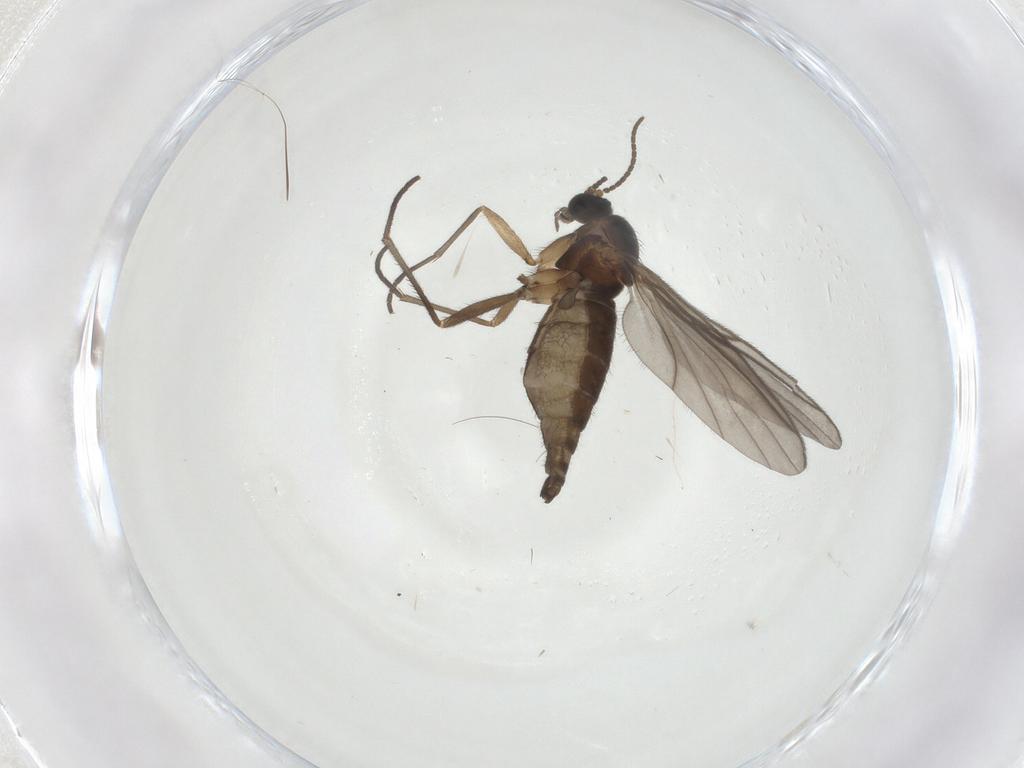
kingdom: Animalia
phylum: Arthropoda
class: Insecta
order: Diptera
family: Sciaridae
